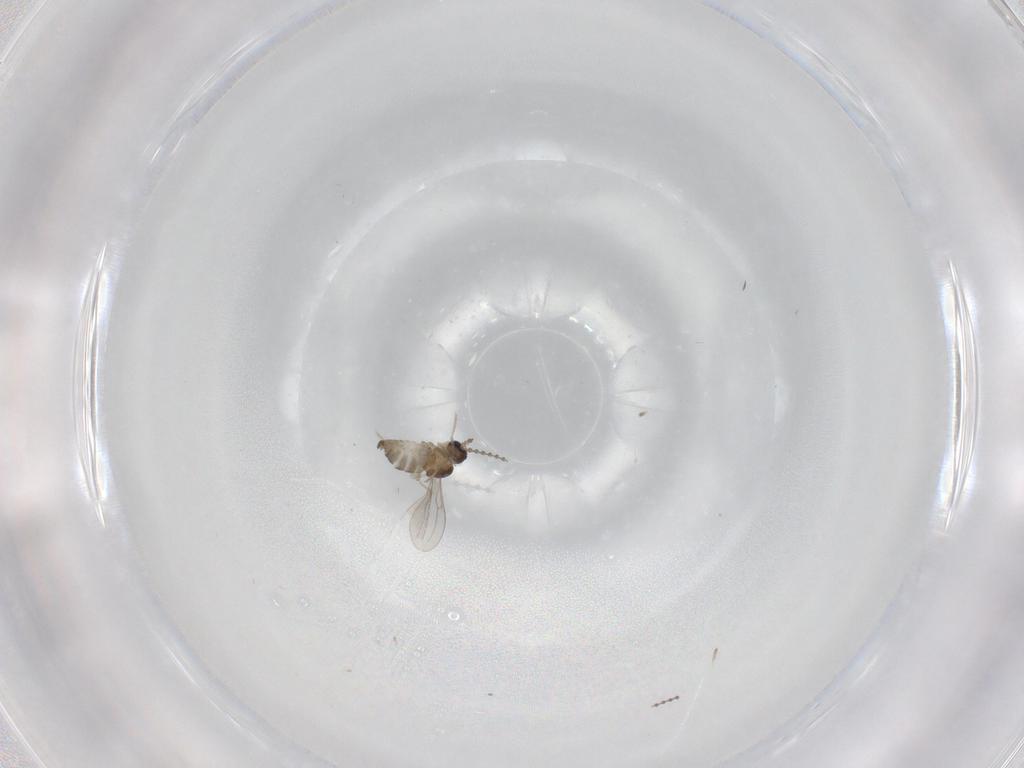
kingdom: Animalia
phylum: Arthropoda
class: Insecta
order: Diptera
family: Cecidomyiidae
